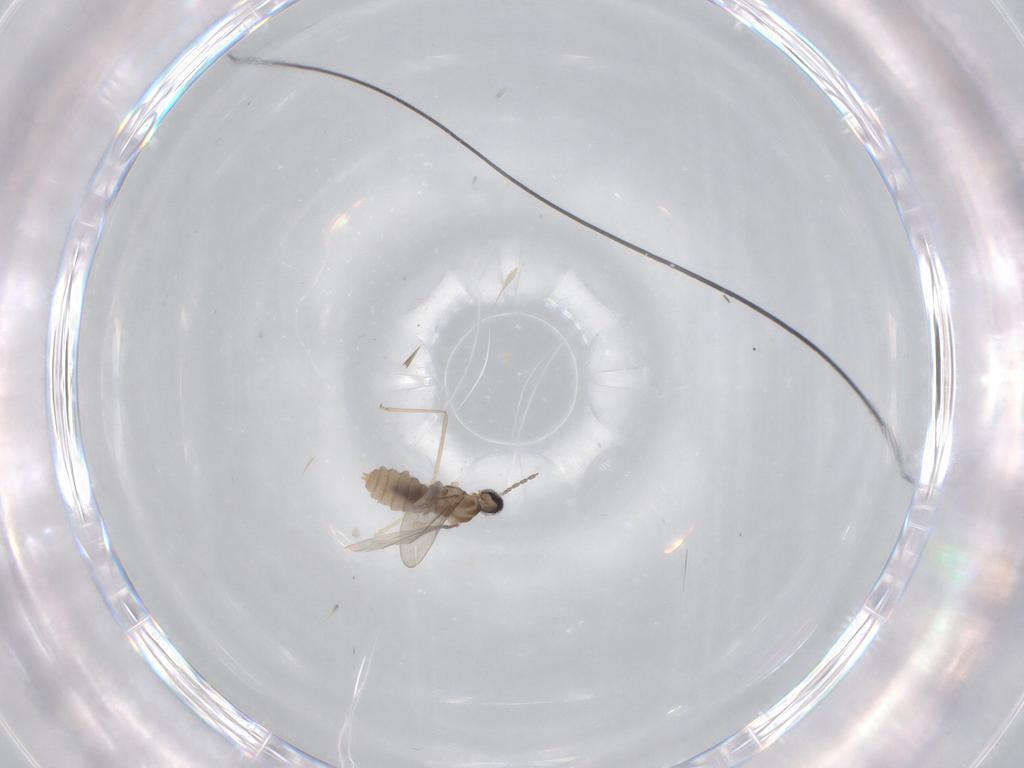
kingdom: Animalia
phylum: Arthropoda
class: Insecta
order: Diptera
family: Cecidomyiidae
